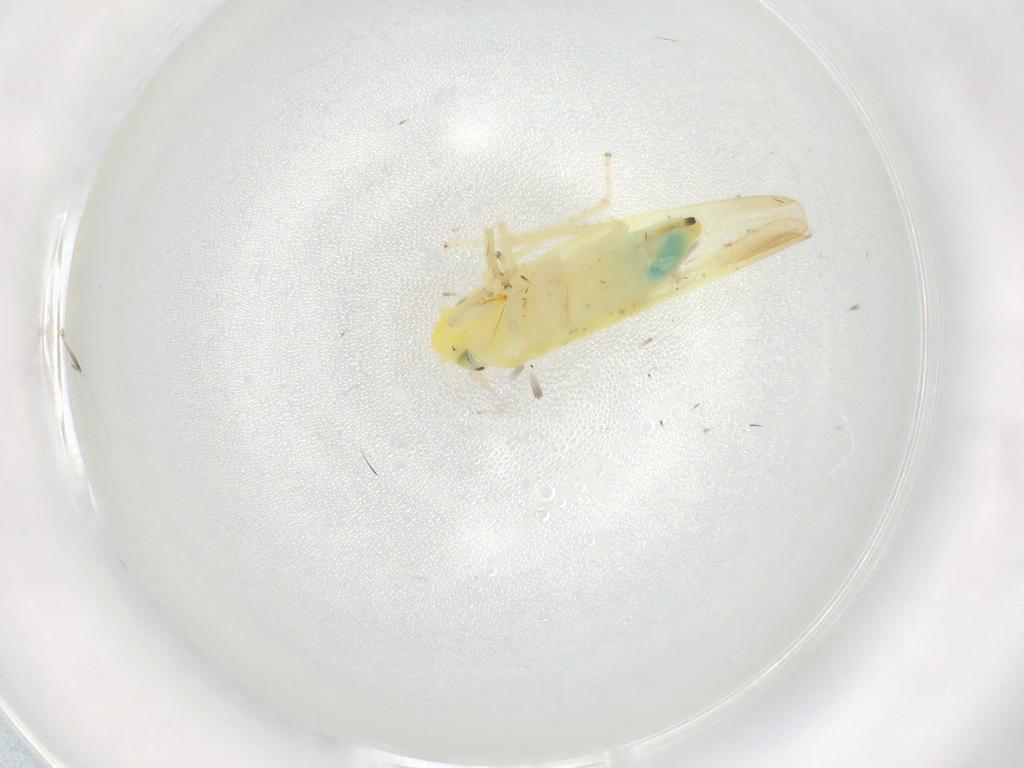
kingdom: Animalia
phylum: Arthropoda
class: Insecta
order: Hemiptera
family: Cicadellidae
